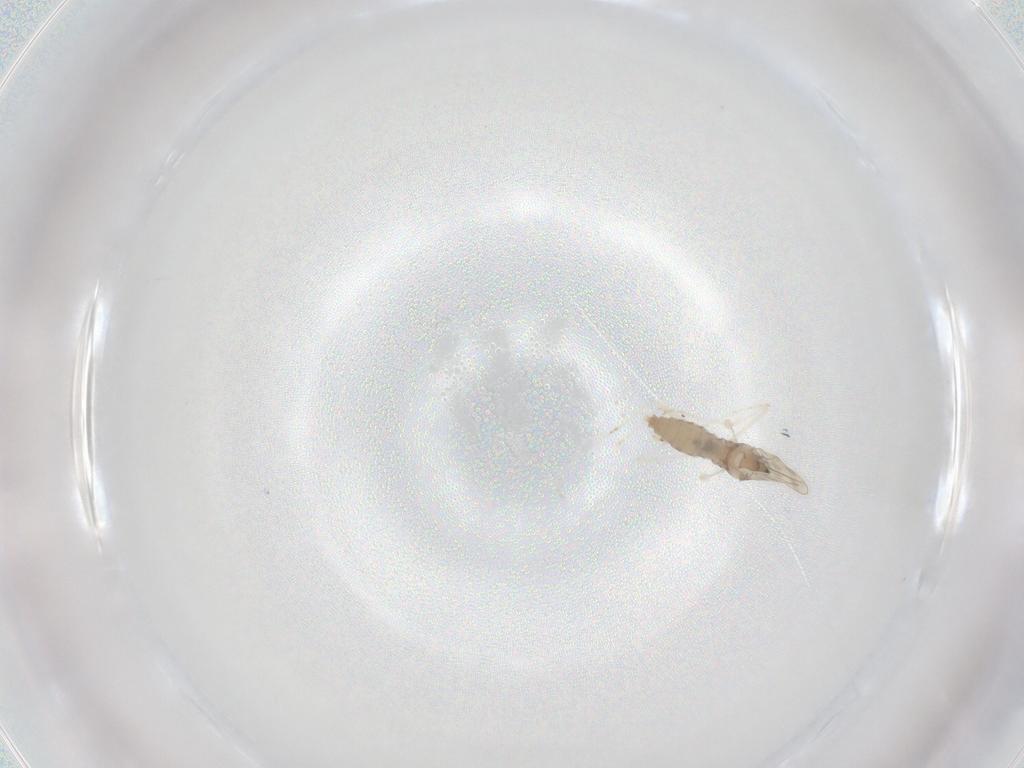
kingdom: Animalia
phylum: Arthropoda
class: Insecta
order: Diptera
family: Cecidomyiidae
